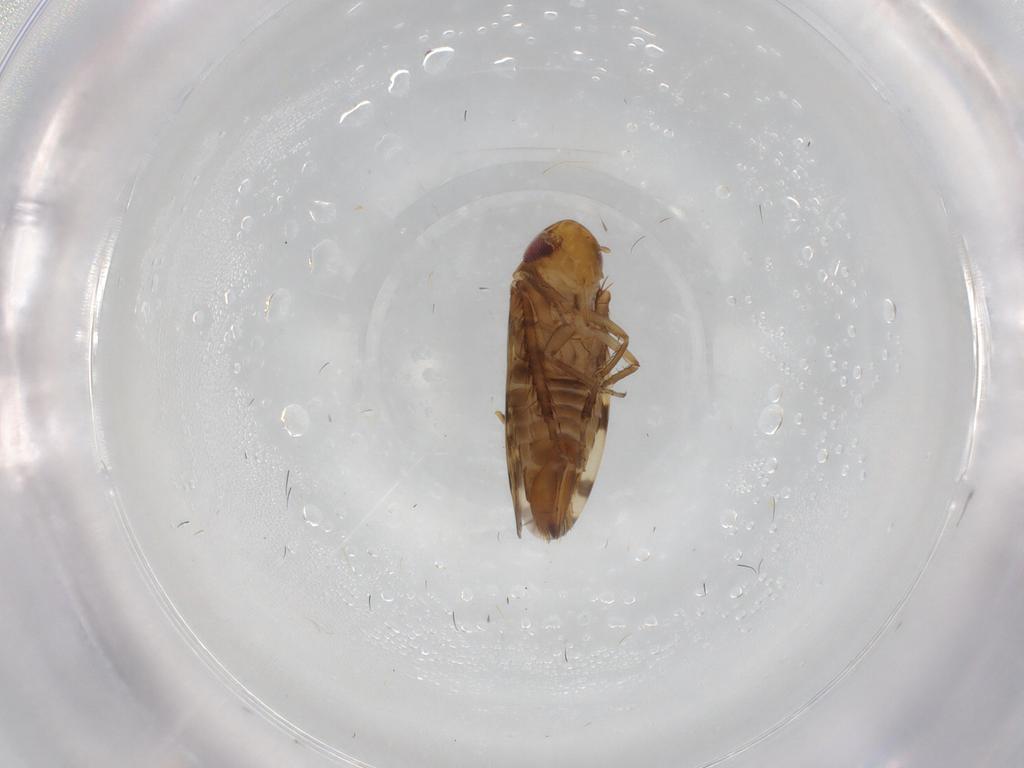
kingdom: Animalia
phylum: Arthropoda
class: Insecta
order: Hemiptera
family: Cicadellidae
